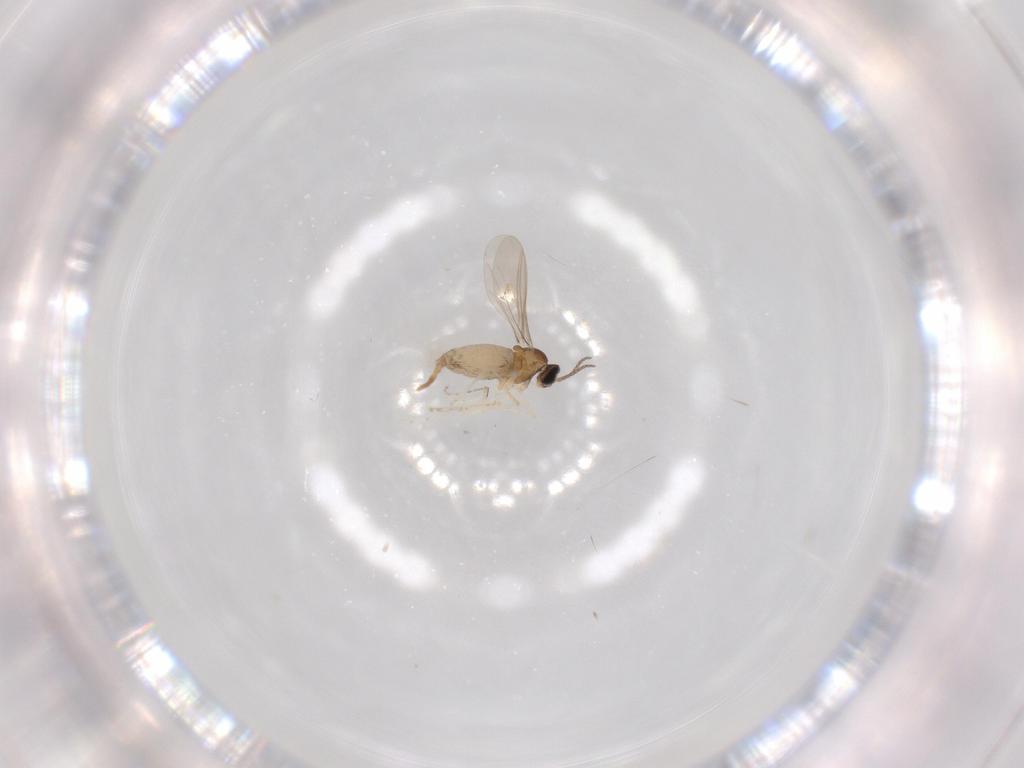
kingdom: Animalia
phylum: Arthropoda
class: Insecta
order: Diptera
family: Cecidomyiidae
